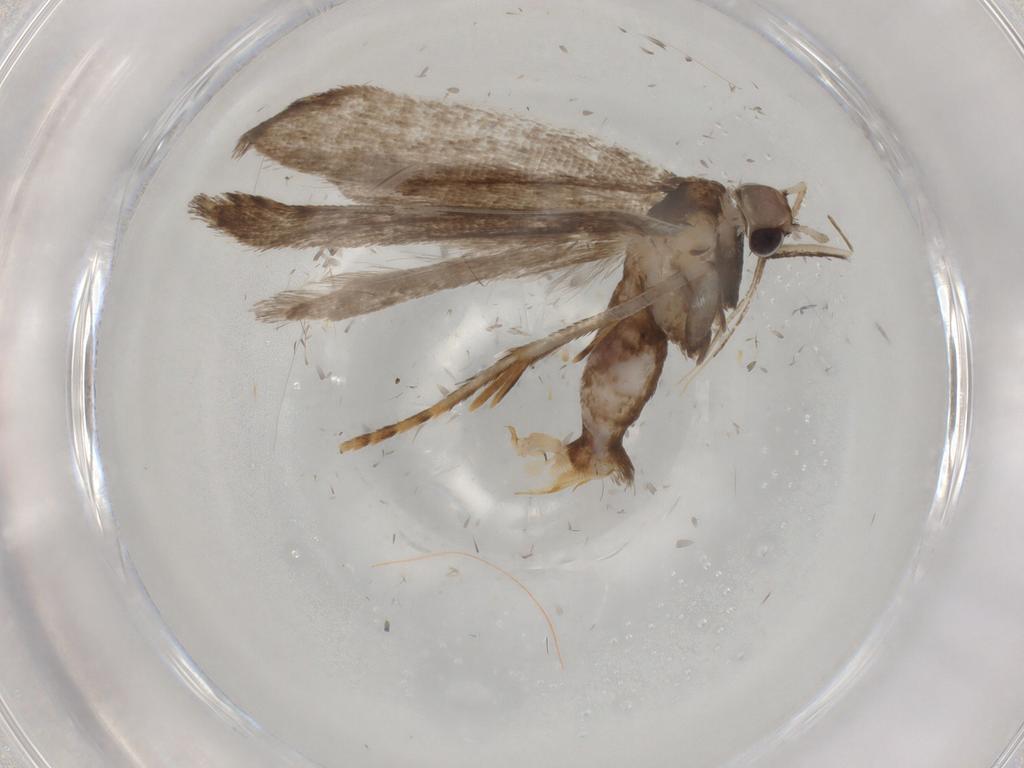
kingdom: Animalia
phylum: Arthropoda
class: Insecta
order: Lepidoptera
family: Gelechiidae
